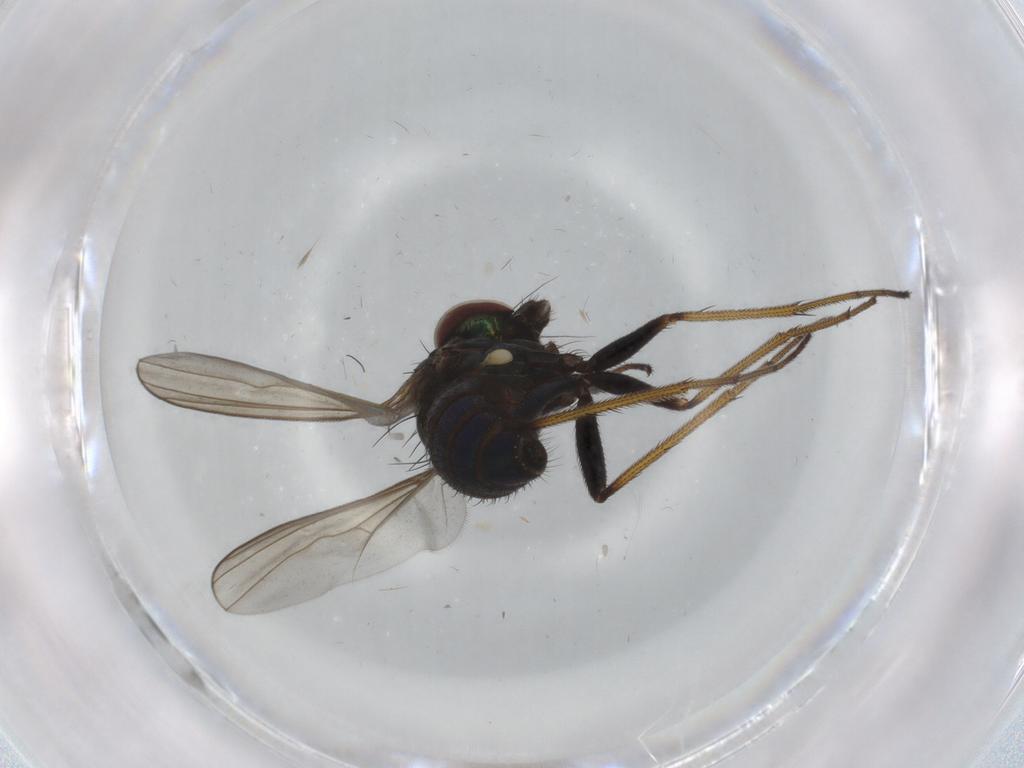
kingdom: Animalia
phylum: Arthropoda
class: Insecta
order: Diptera
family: Dolichopodidae
